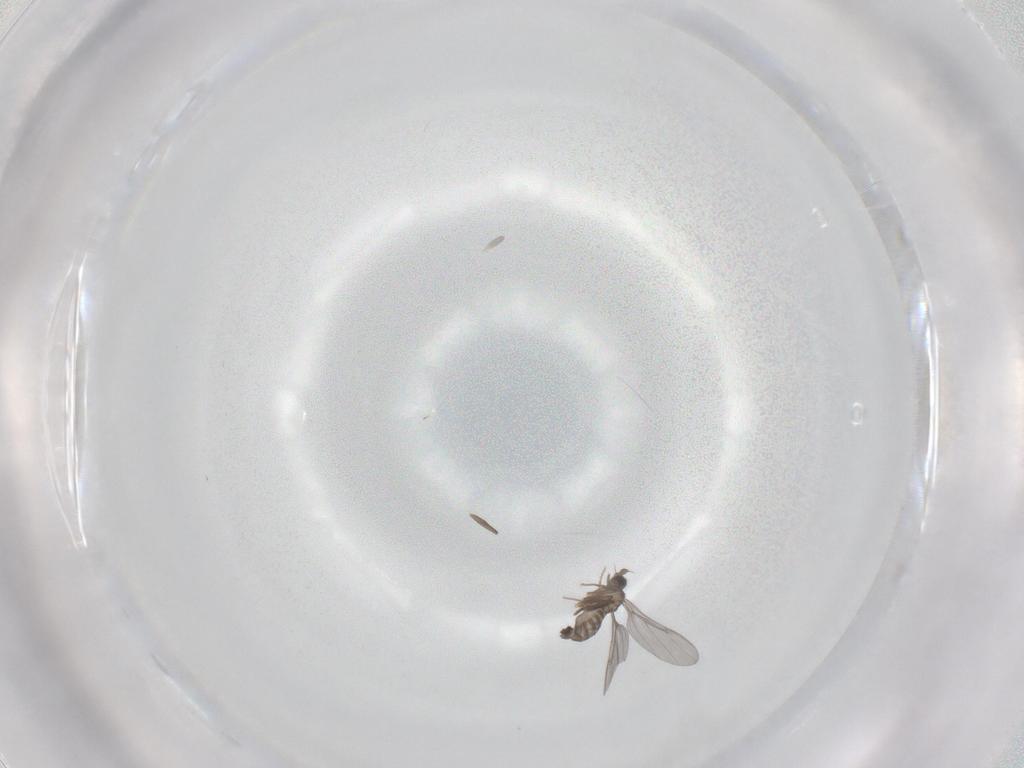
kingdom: Animalia
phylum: Arthropoda
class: Insecta
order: Diptera
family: Phoridae
